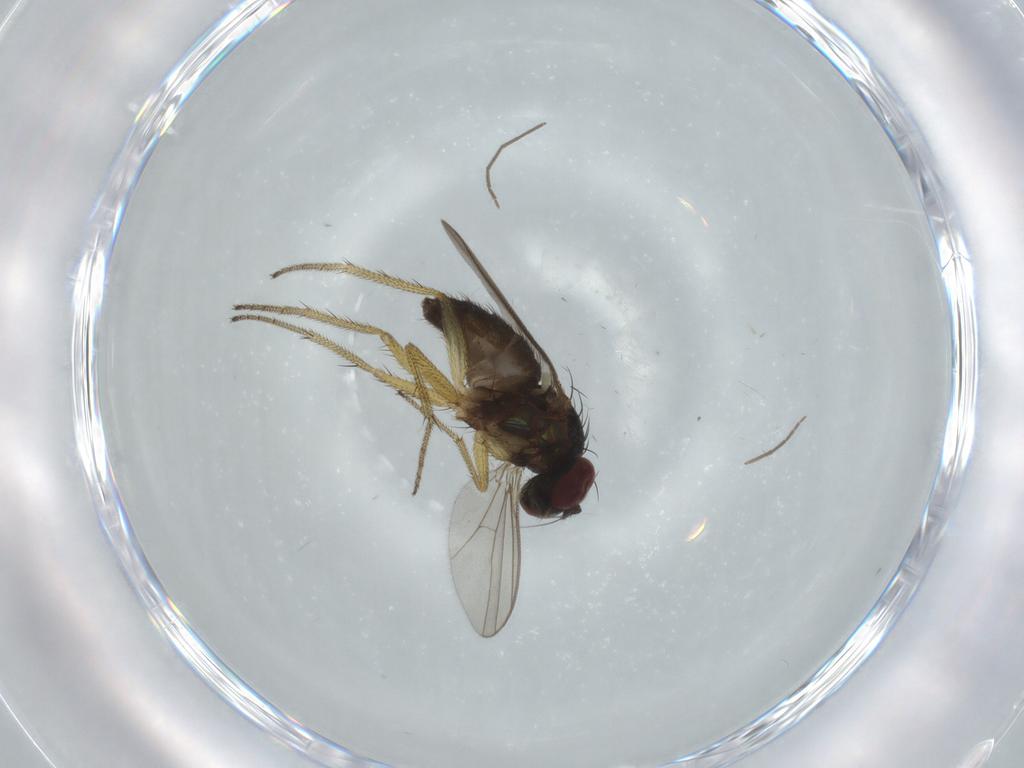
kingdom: Animalia
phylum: Arthropoda
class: Insecta
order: Diptera
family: Dolichopodidae
